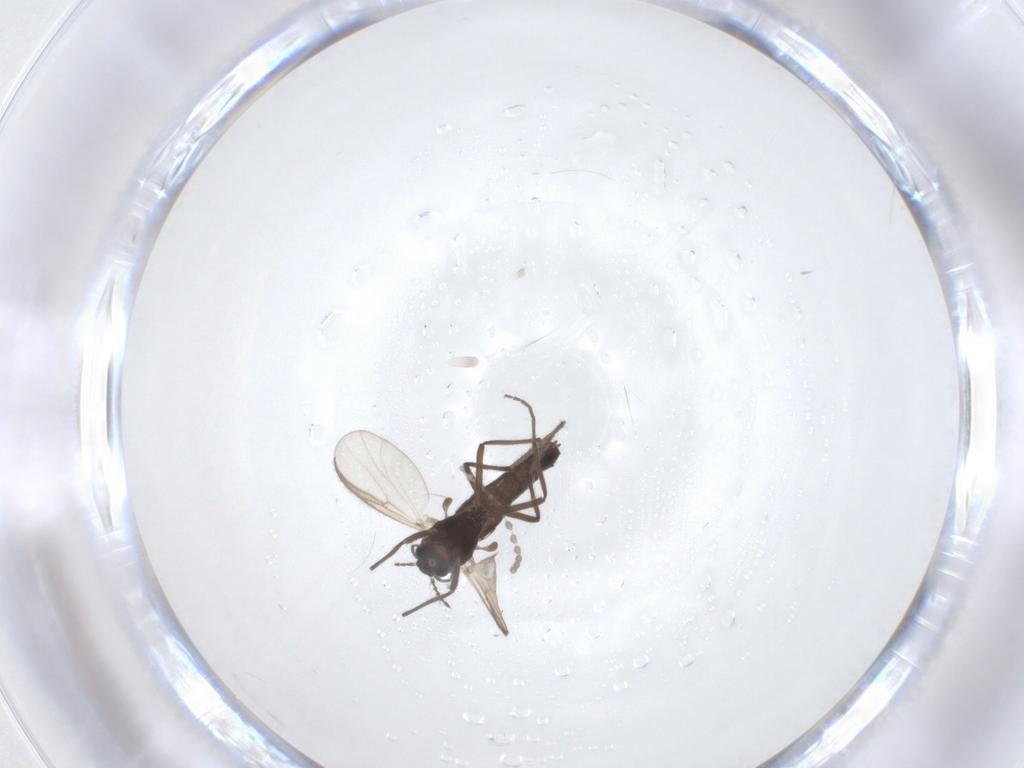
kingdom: Animalia
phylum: Arthropoda
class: Insecta
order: Diptera
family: Cecidomyiidae
